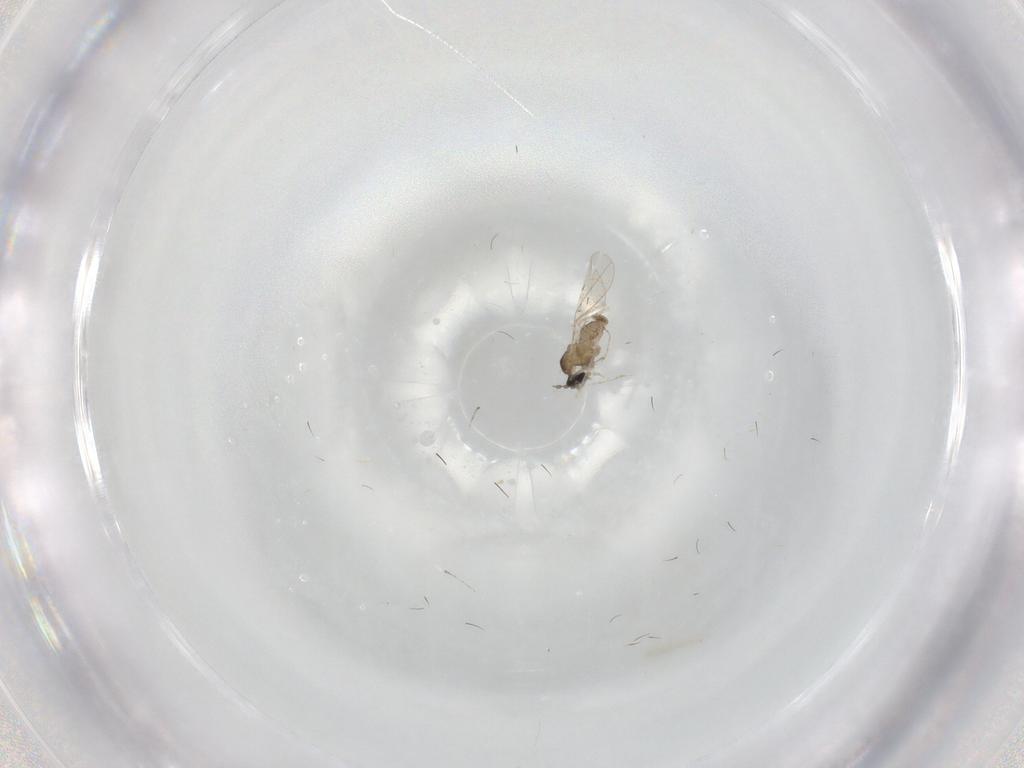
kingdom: Animalia
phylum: Arthropoda
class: Insecta
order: Diptera
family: Cecidomyiidae
